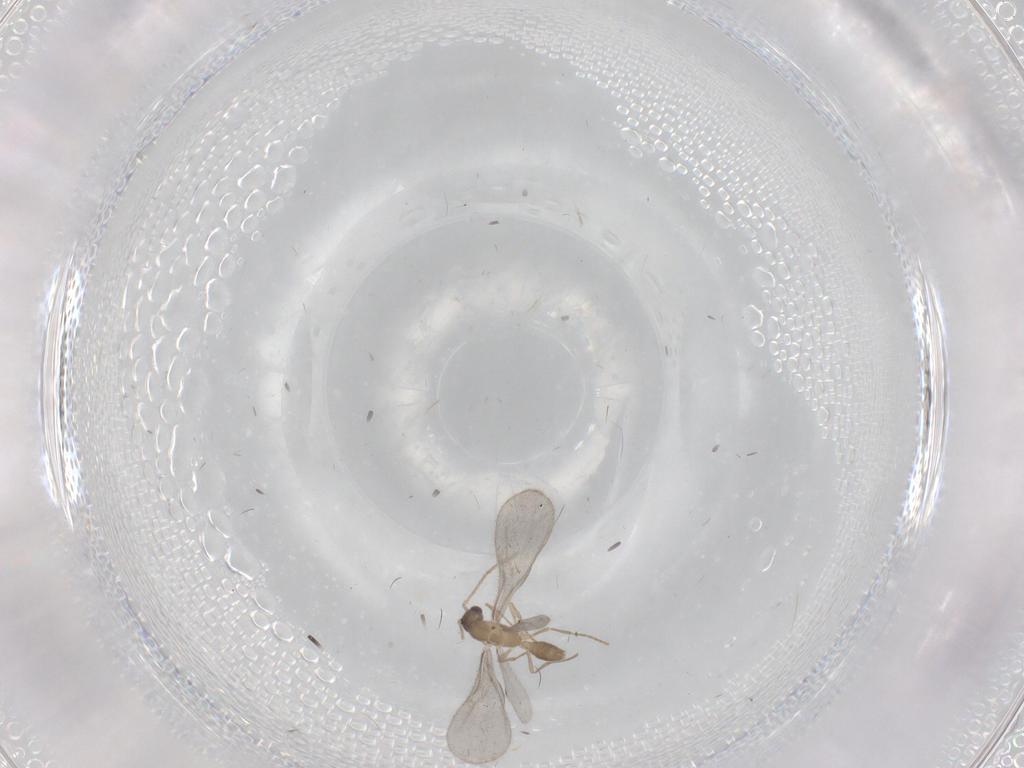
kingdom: Animalia
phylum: Arthropoda
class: Insecta
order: Hymenoptera
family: Formicidae
